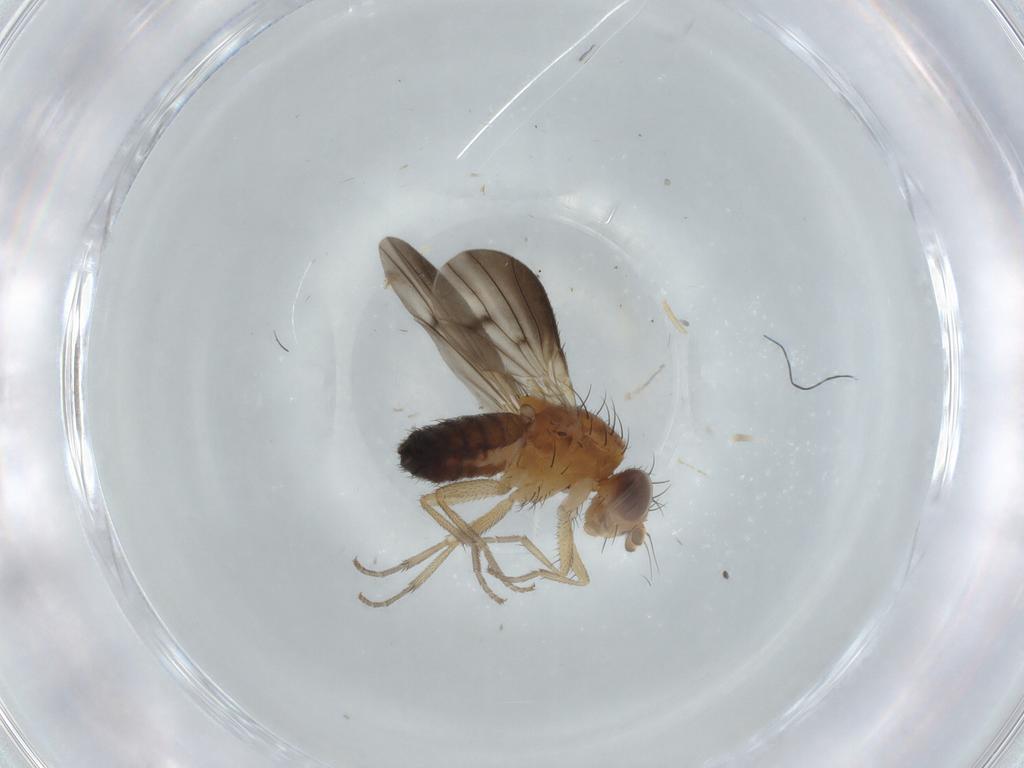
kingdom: Animalia
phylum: Arthropoda
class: Insecta
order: Diptera
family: Heleomyzidae
